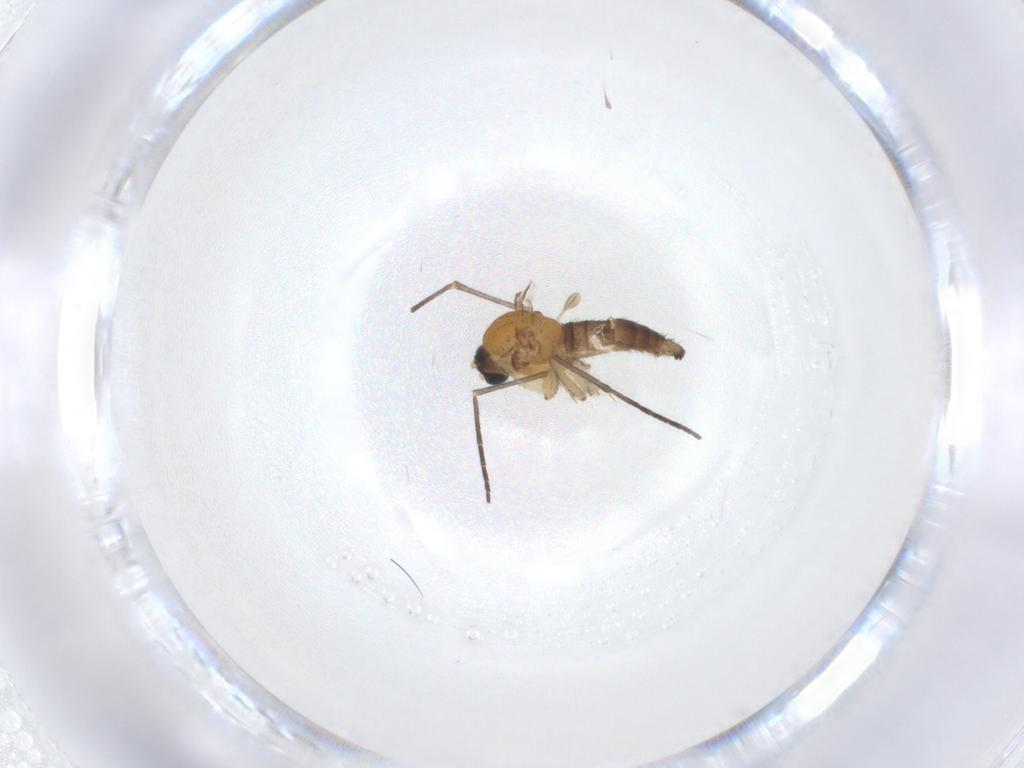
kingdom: Animalia
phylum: Arthropoda
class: Insecta
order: Diptera
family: Sciaridae
